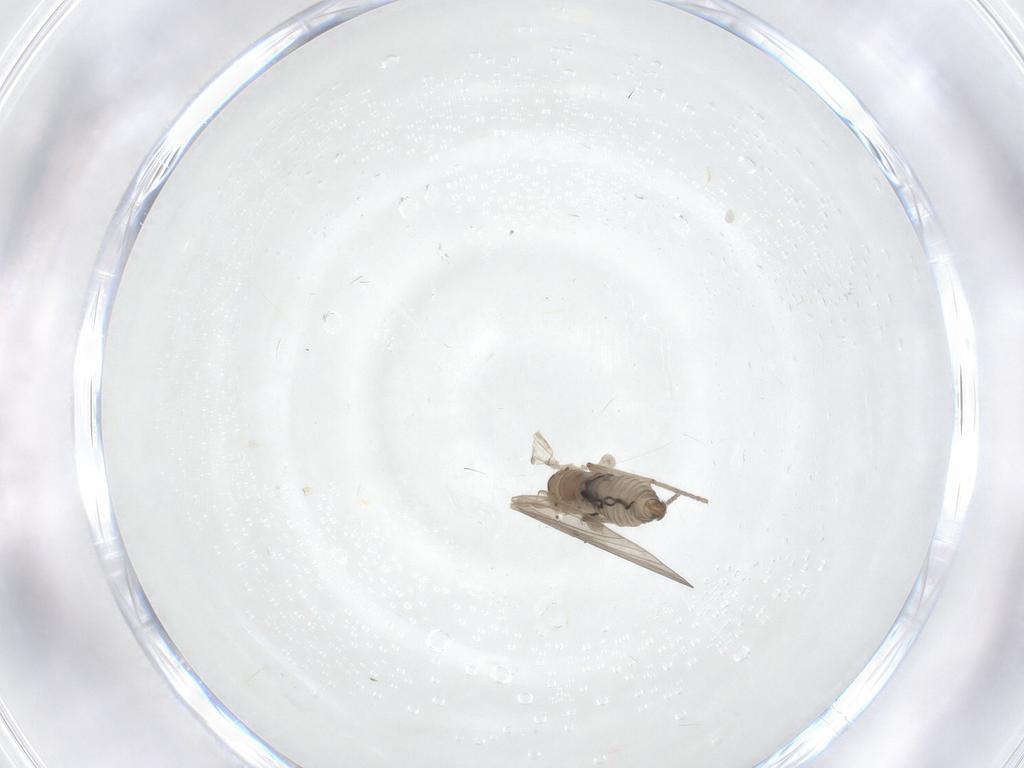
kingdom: Animalia
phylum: Arthropoda
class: Insecta
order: Diptera
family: Psychodidae
